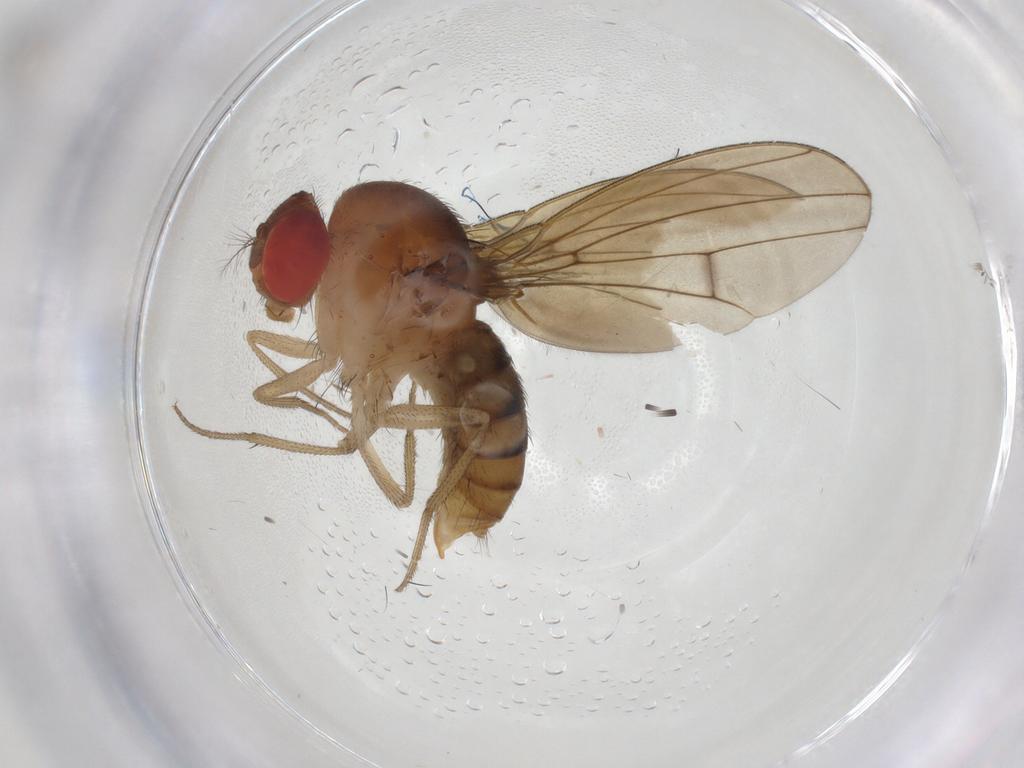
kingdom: Animalia
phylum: Arthropoda
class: Insecta
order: Diptera
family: Drosophilidae
